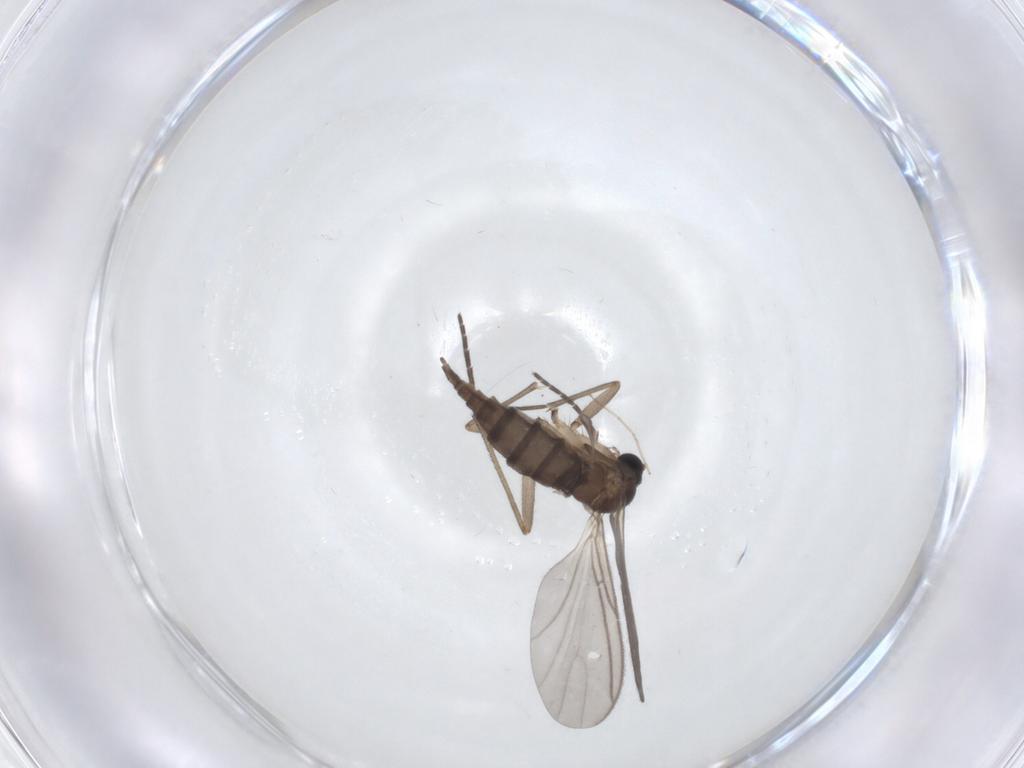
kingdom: Animalia
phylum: Arthropoda
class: Insecta
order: Diptera
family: Sciaridae
